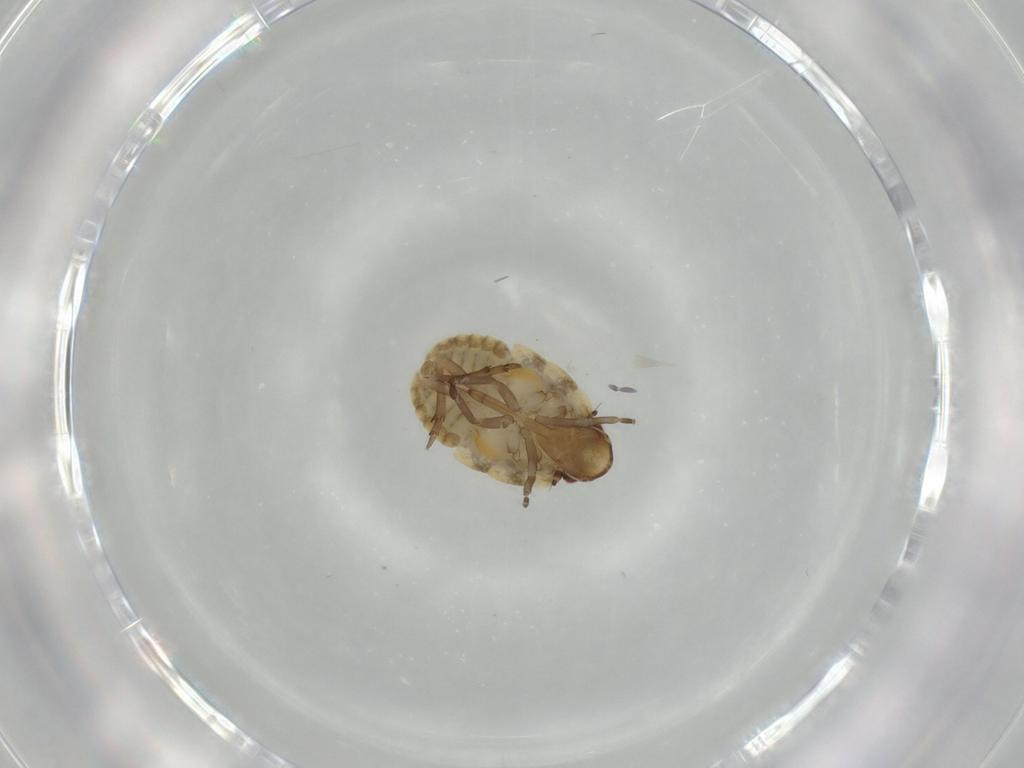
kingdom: Animalia
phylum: Arthropoda
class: Insecta
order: Hemiptera
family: Flatidae
